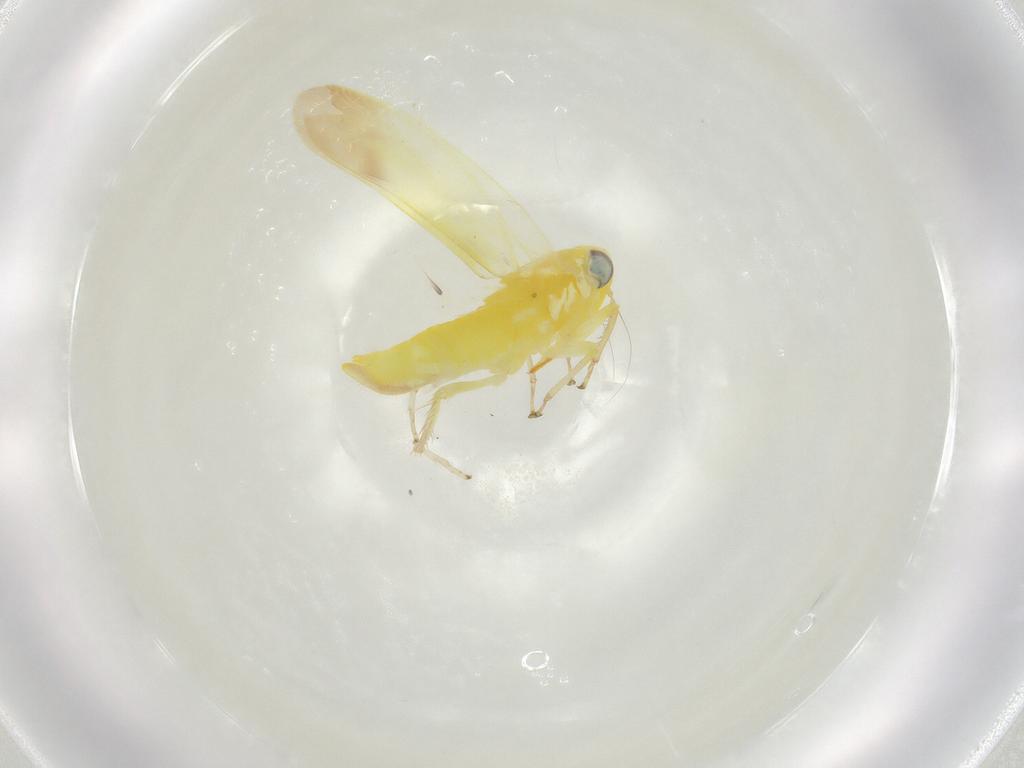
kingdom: Animalia
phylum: Arthropoda
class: Insecta
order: Hemiptera
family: Cicadellidae
